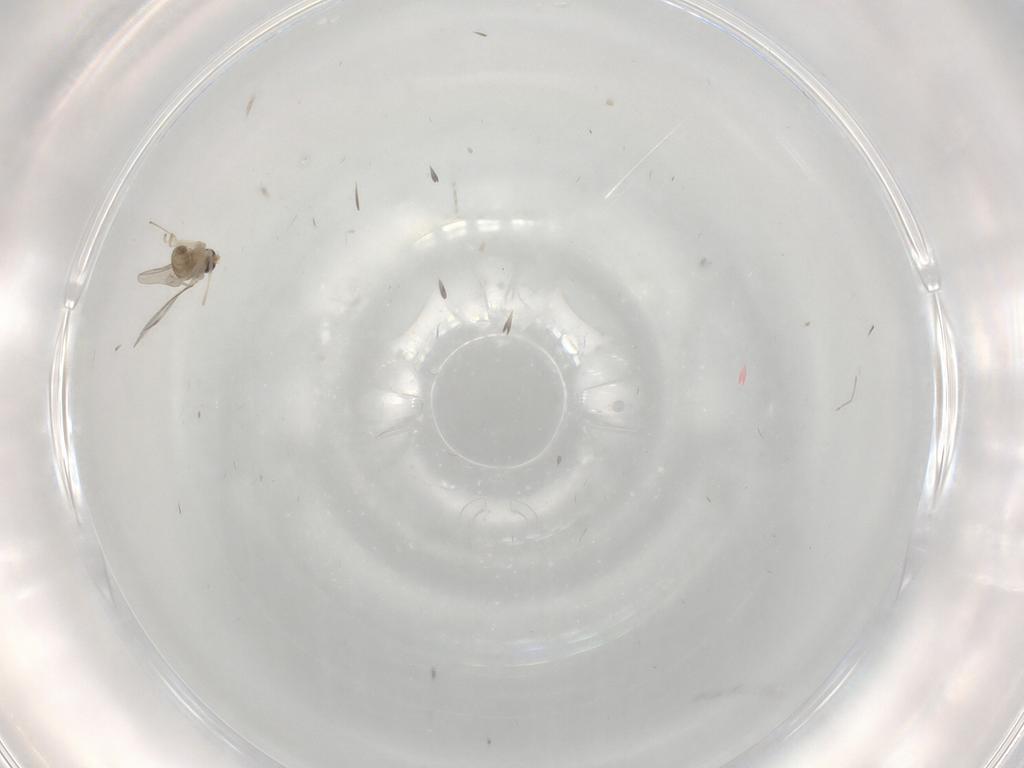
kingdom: Animalia
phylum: Arthropoda
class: Insecta
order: Diptera
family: Cecidomyiidae
